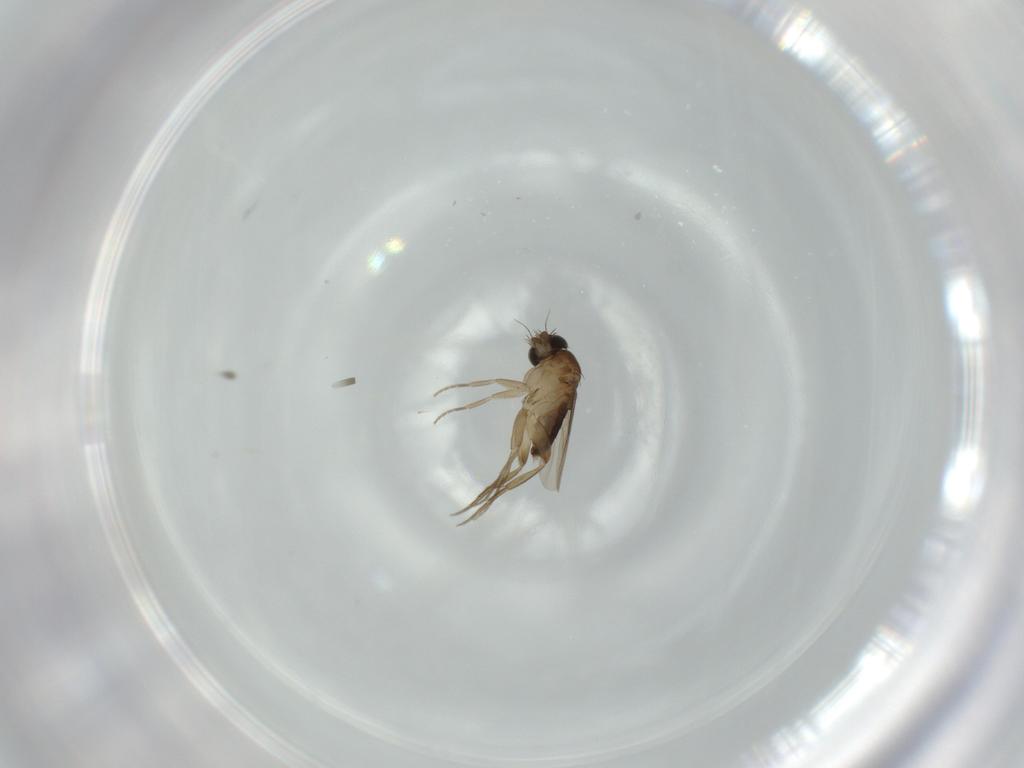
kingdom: Animalia
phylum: Arthropoda
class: Insecta
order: Diptera
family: Phoridae
